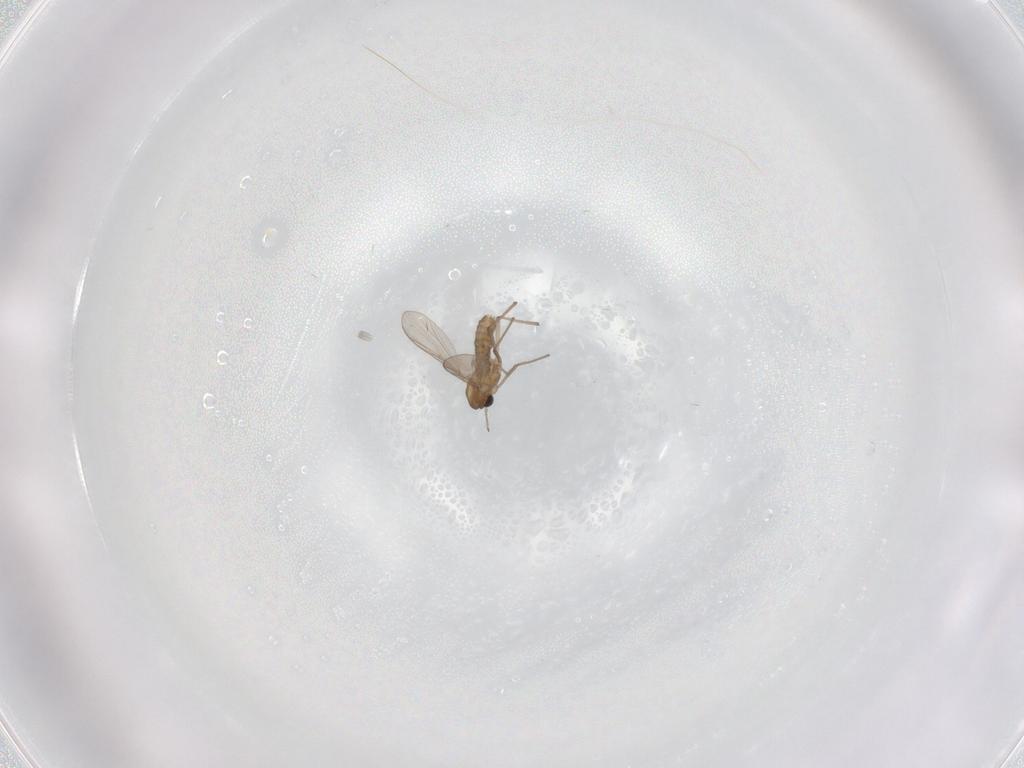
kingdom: Animalia
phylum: Arthropoda
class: Insecta
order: Diptera
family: Chironomidae
